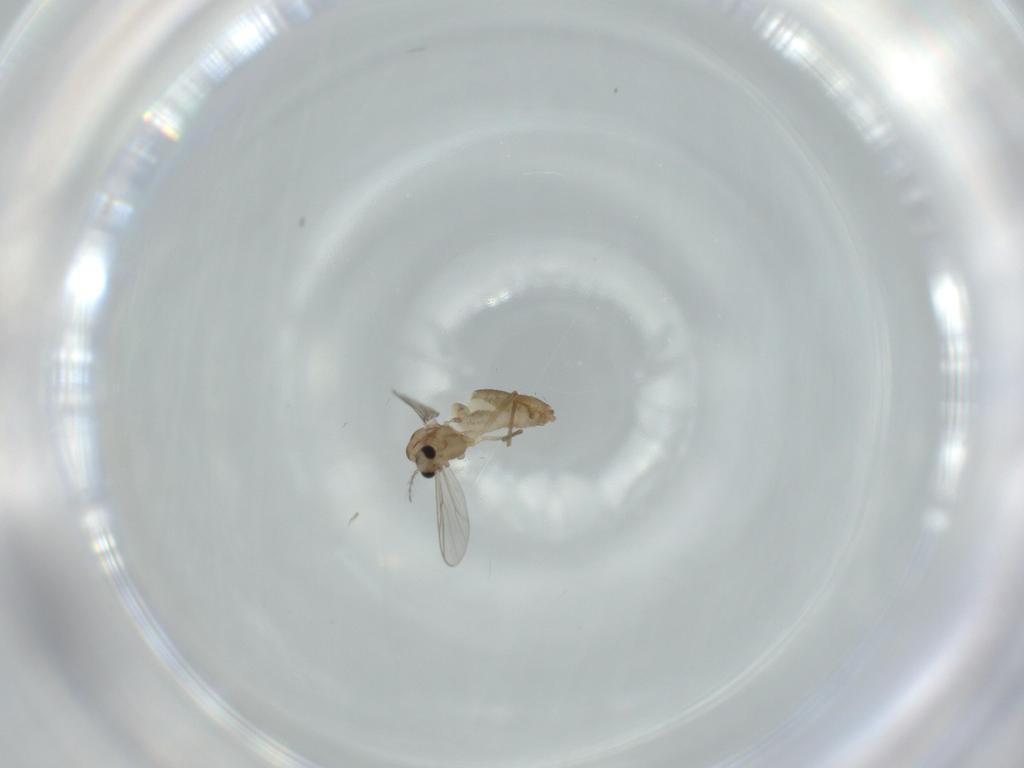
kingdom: Animalia
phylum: Arthropoda
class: Insecta
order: Diptera
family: Chironomidae
